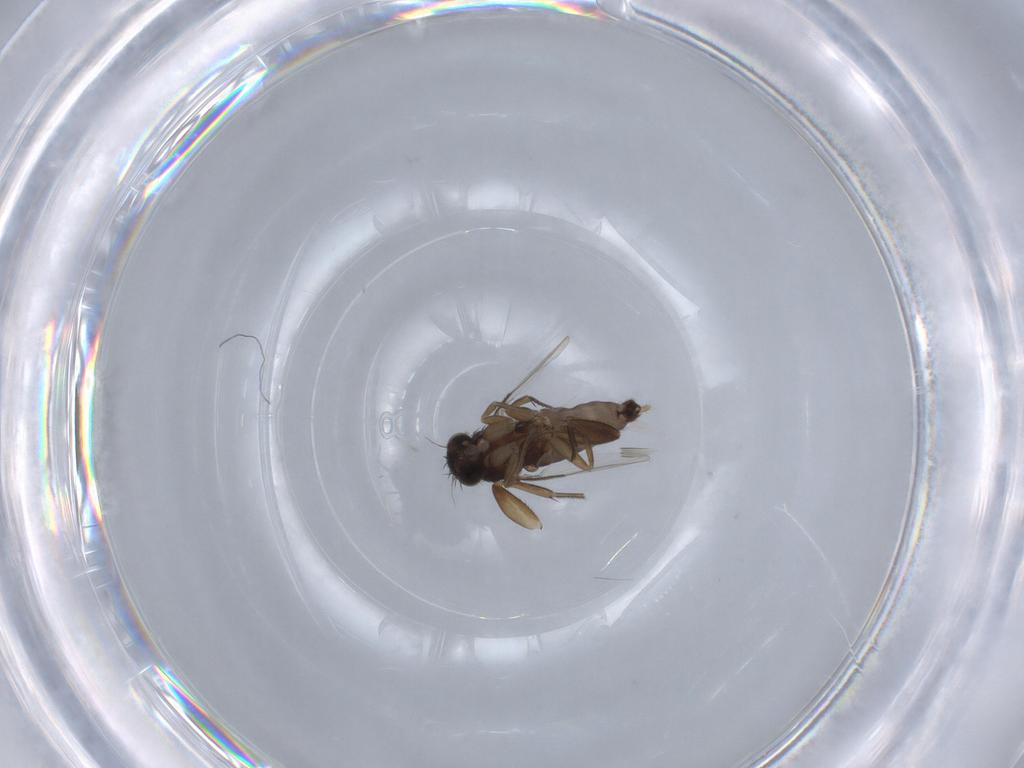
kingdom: Animalia
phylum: Arthropoda
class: Insecta
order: Diptera
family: Phoridae
